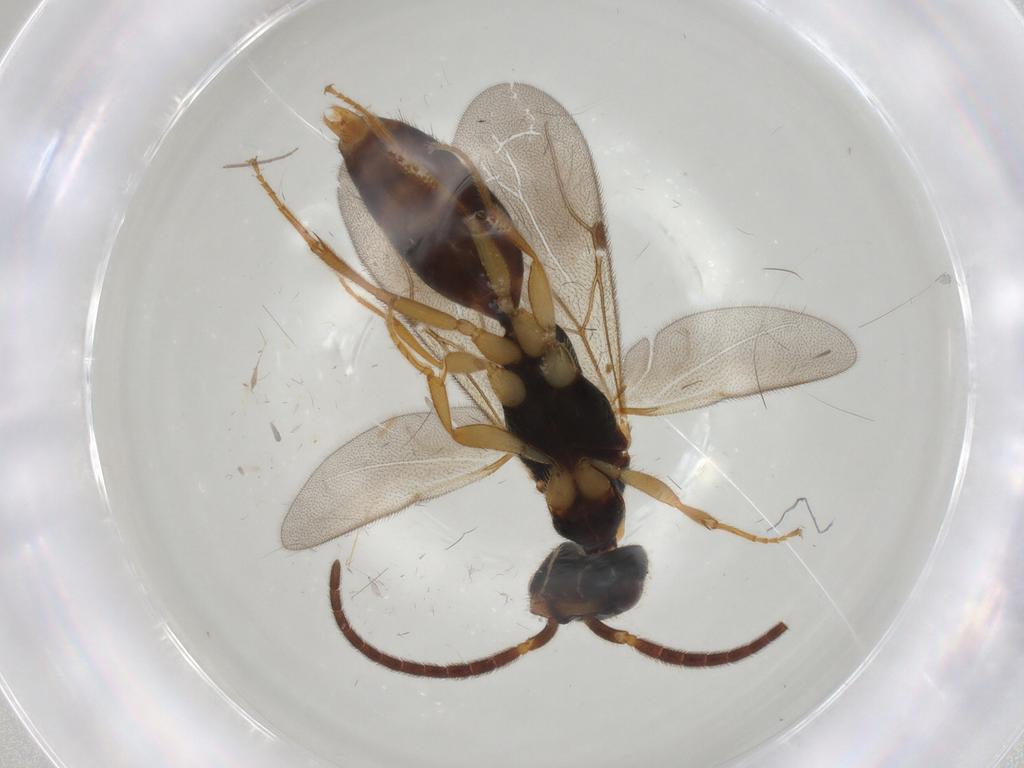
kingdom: Animalia
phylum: Arthropoda
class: Insecta
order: Hymenoptera
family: Bethylidae
